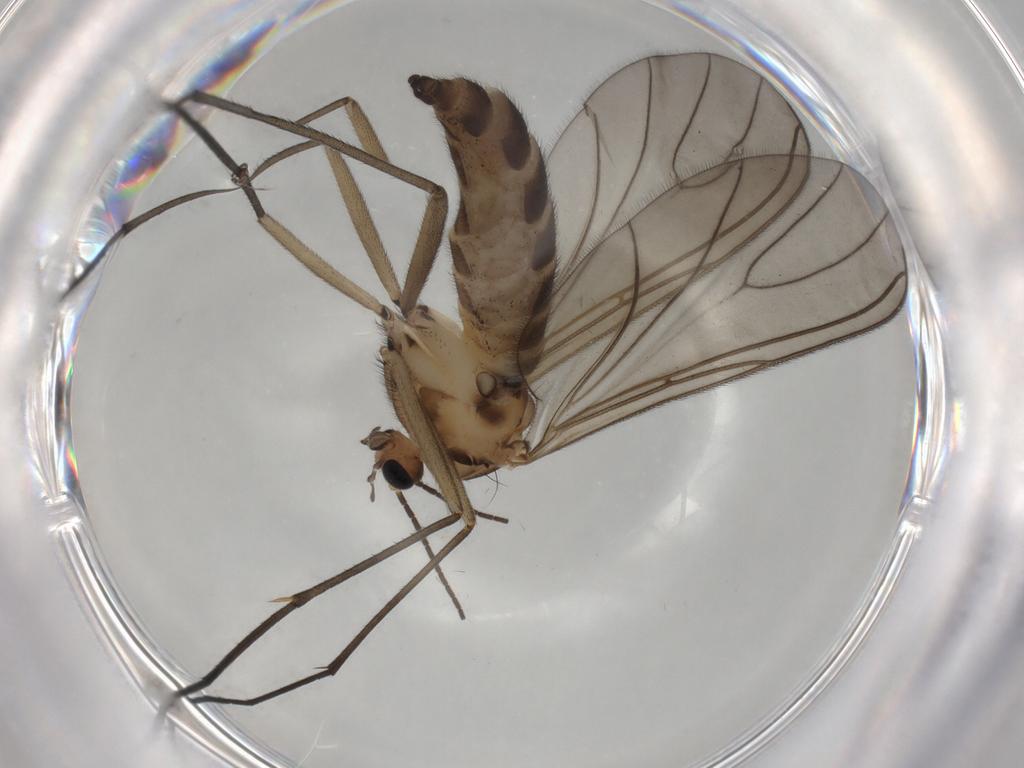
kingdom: Animalia
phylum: Arthropoda
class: Insecta
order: Diptera
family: Sciaridae
